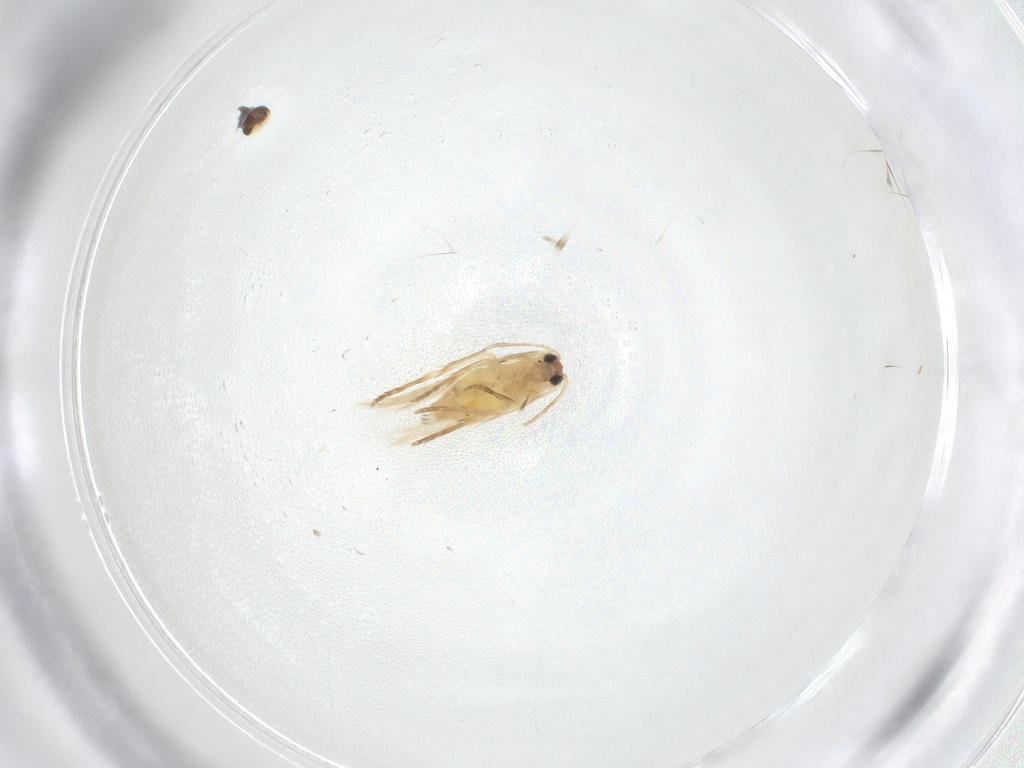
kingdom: Animalia
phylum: Arthropoda
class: Insecta
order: Lepidoptera
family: Nepticulidae
